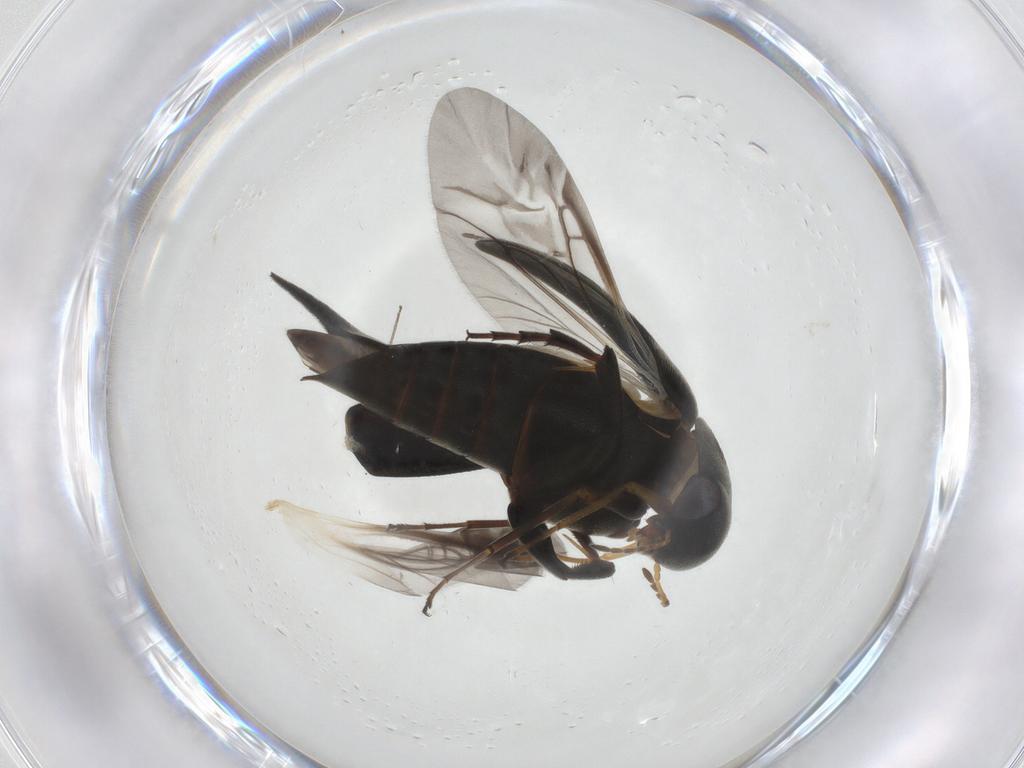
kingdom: Animalia
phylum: Arthropoda
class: Insecta
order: Coleoptera
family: Mordellidae
